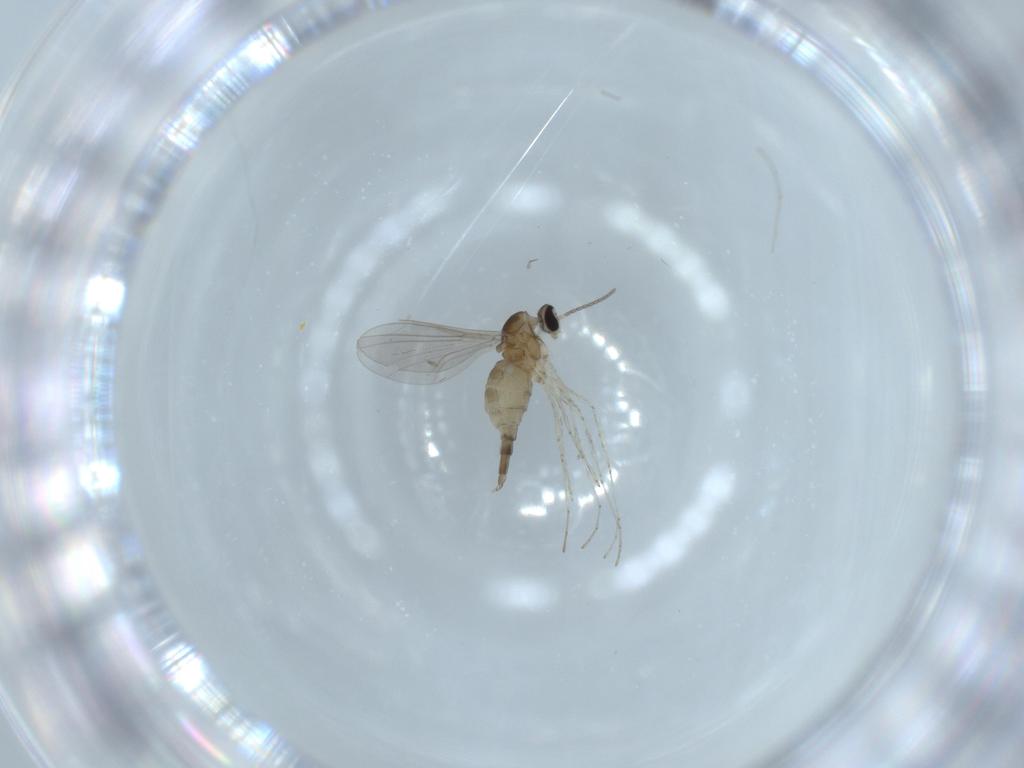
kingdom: Animalia
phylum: Arthropoda
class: Insecta
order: Diptera
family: Cecidomyiidae
